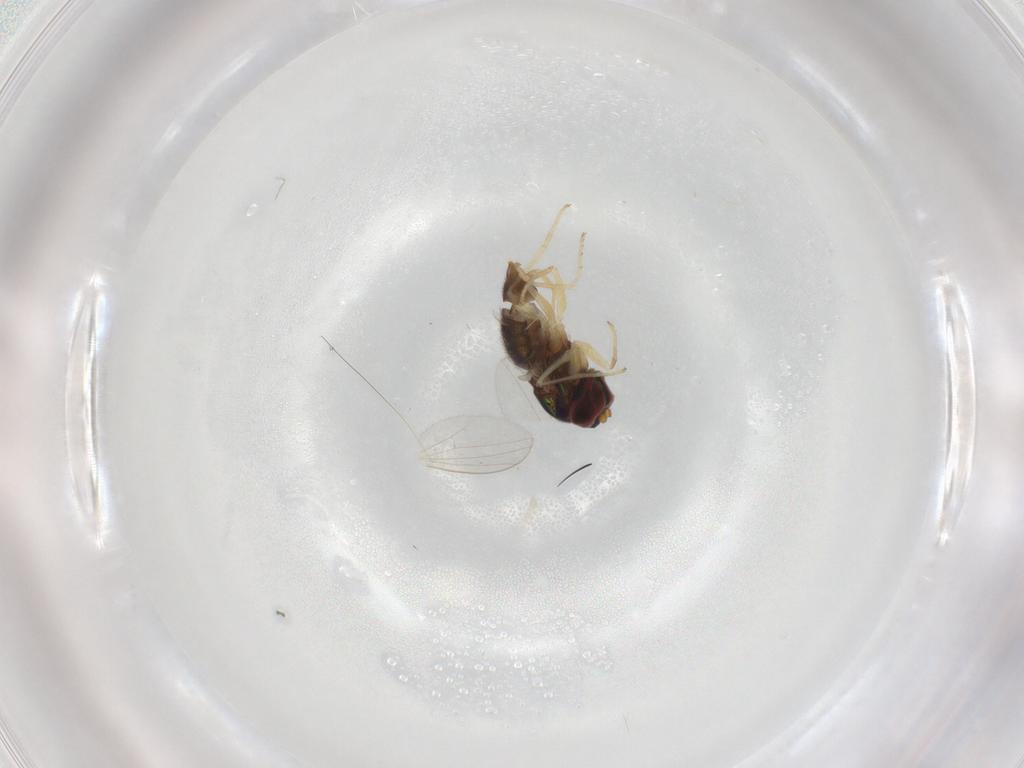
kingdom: Animalia
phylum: Arthropoda
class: Insecta
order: Diptera
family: Dolichopodidae
